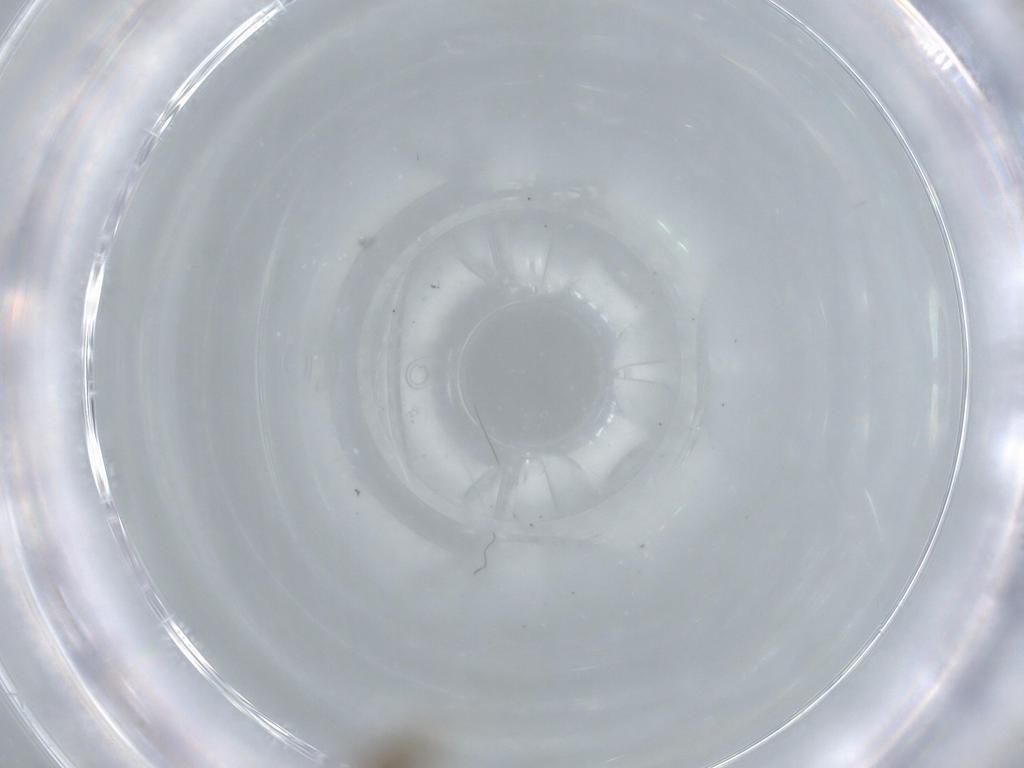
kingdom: Animalia
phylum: Arthropoda
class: Insecta
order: Diptera
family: Cecidomyiidae
